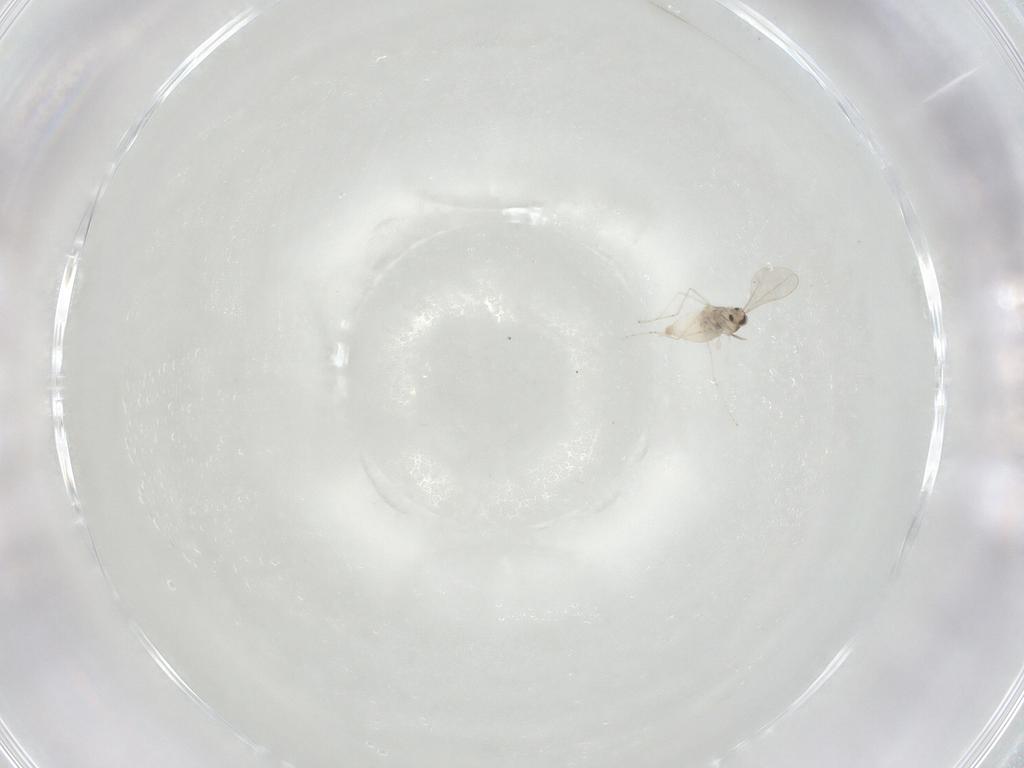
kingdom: Animalia
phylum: Arthropoda
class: Insecta
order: Diptera
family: Cecidomyiidae
